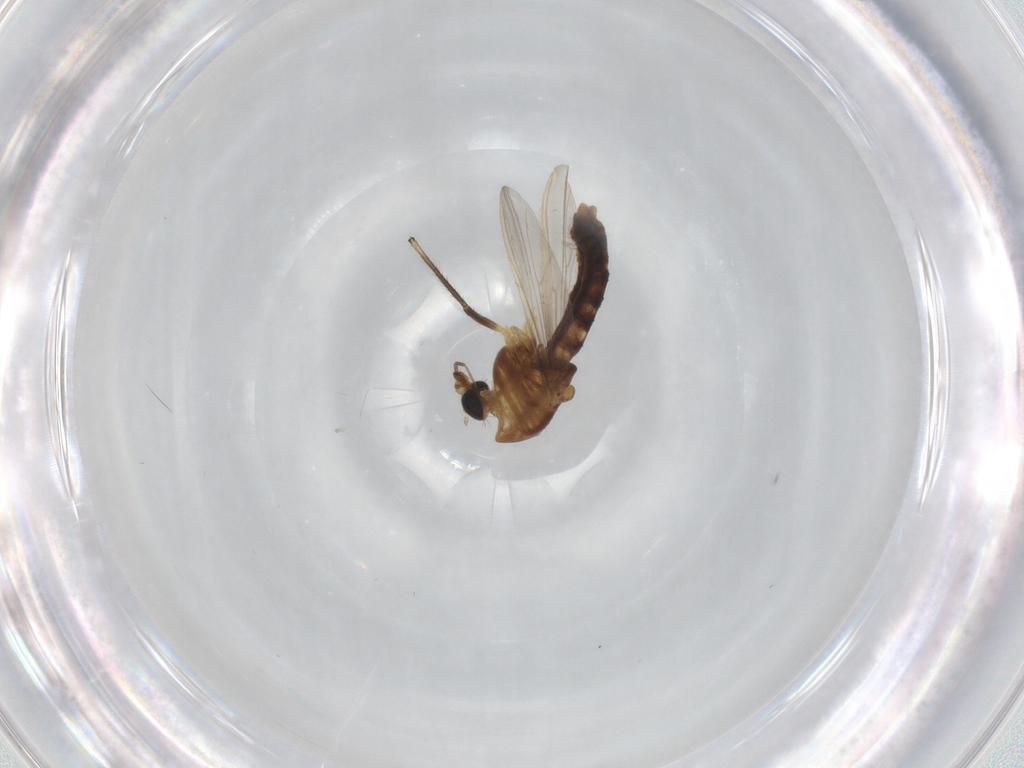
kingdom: Animalia
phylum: Arthropoda
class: Insecta
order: Diptera
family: Chironomidae
